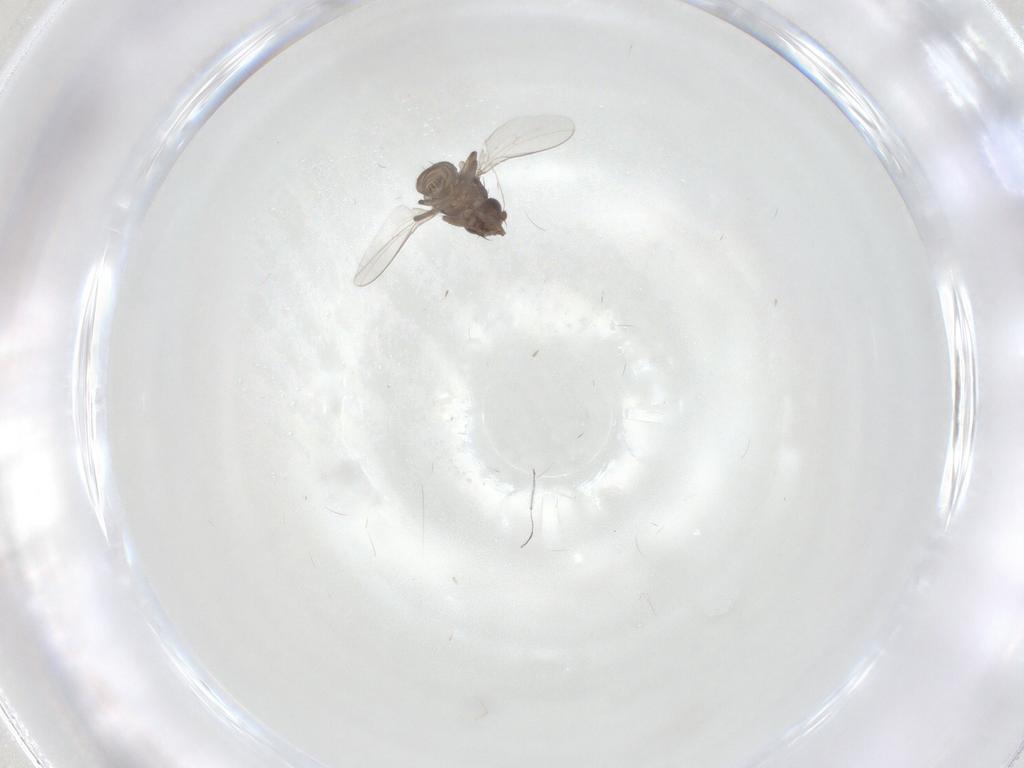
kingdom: Animalia
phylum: Arthropoda
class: Insecta
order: Diptera
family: Sphaeroceridae
